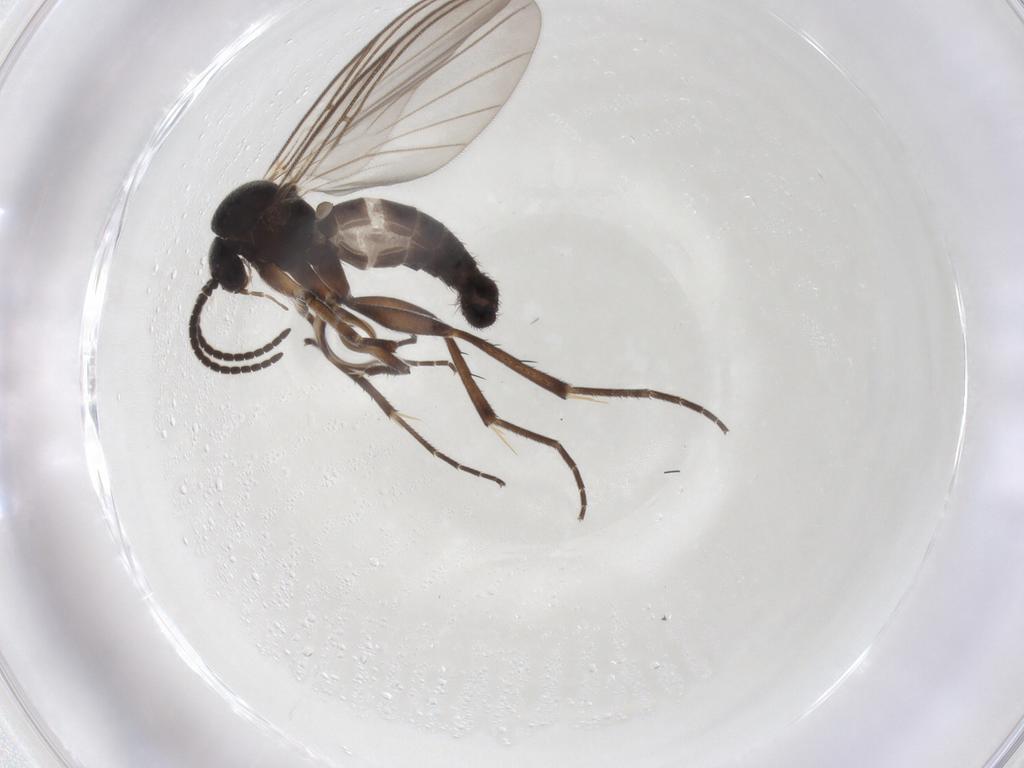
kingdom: Animalia
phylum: Arthropoda
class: Insecta
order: Diptera
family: Mycetophilidae
